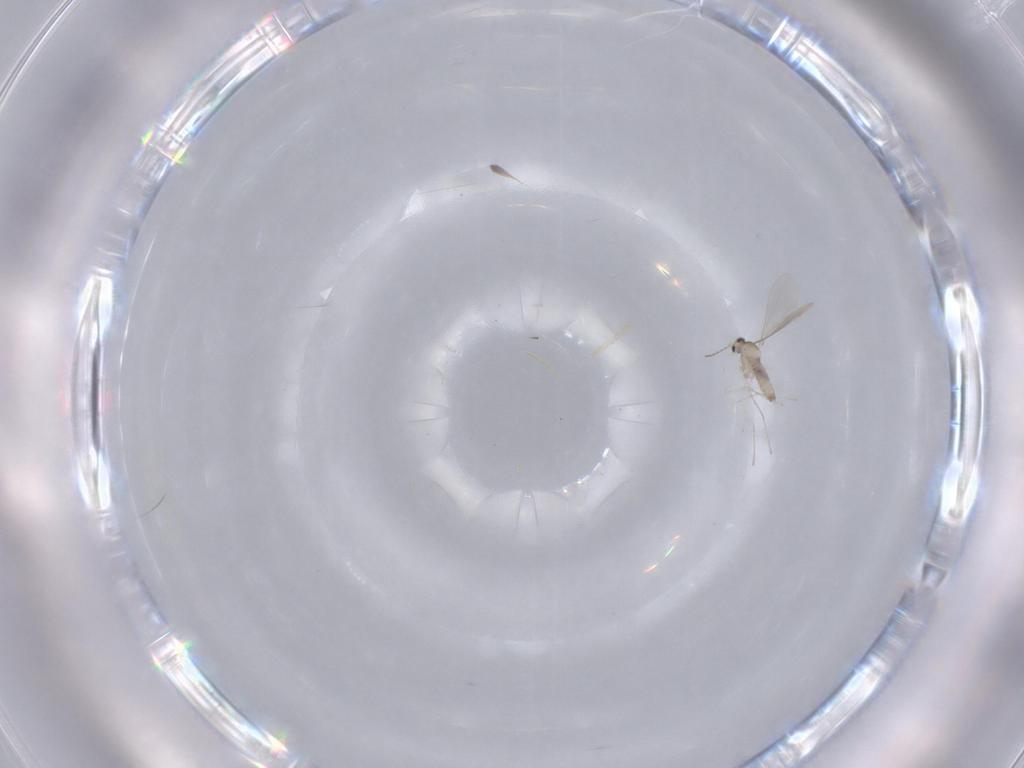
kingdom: Animalia
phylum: Arthropoda
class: Insecta
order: Diptera
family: Cecidomyiidae
